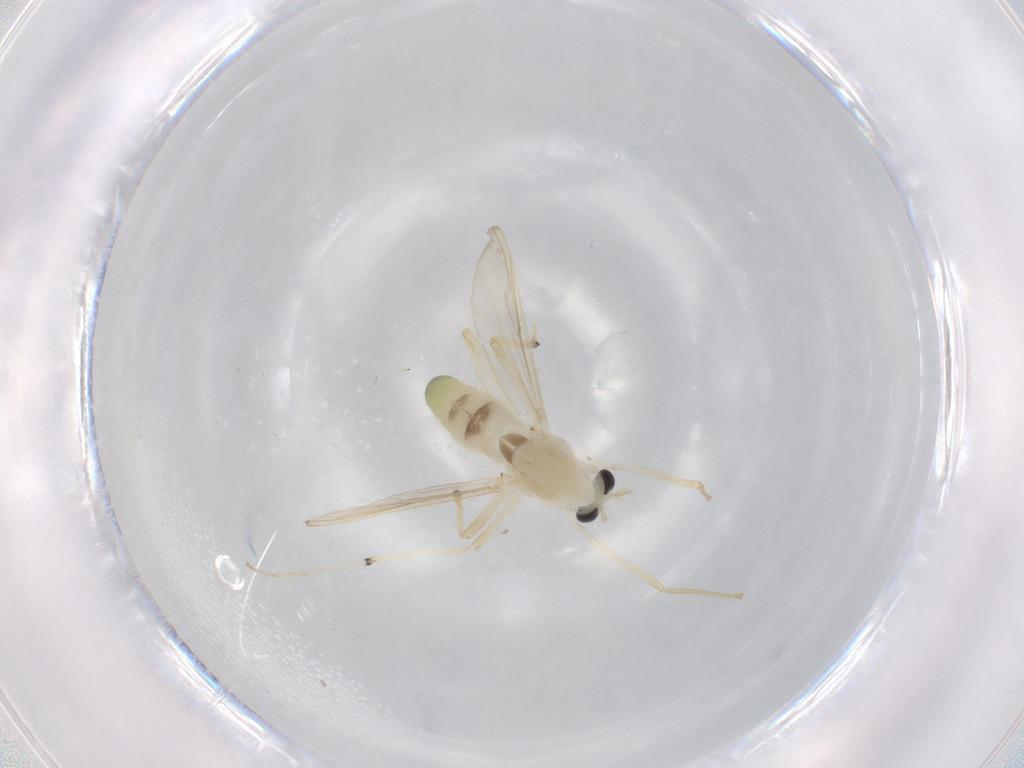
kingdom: Animalia
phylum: Arthropoda
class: Insecta
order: Diptera
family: Chironomidae
